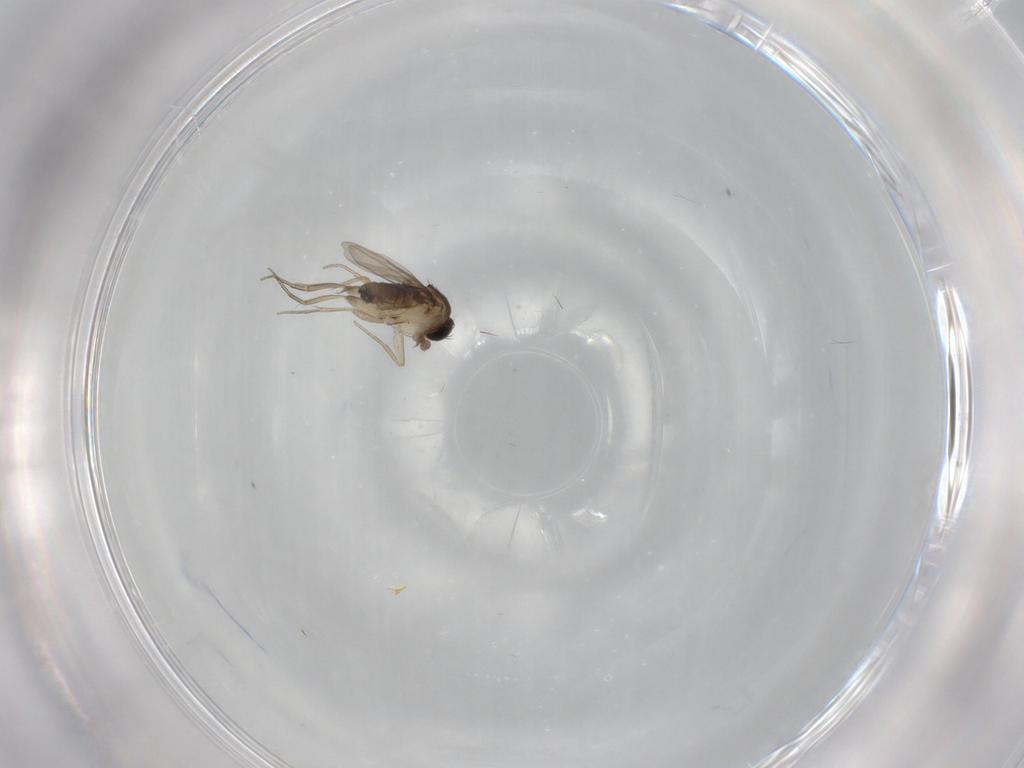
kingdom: Animalia
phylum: Arthropoda
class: Insecta
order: Diptera
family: Phoridae
